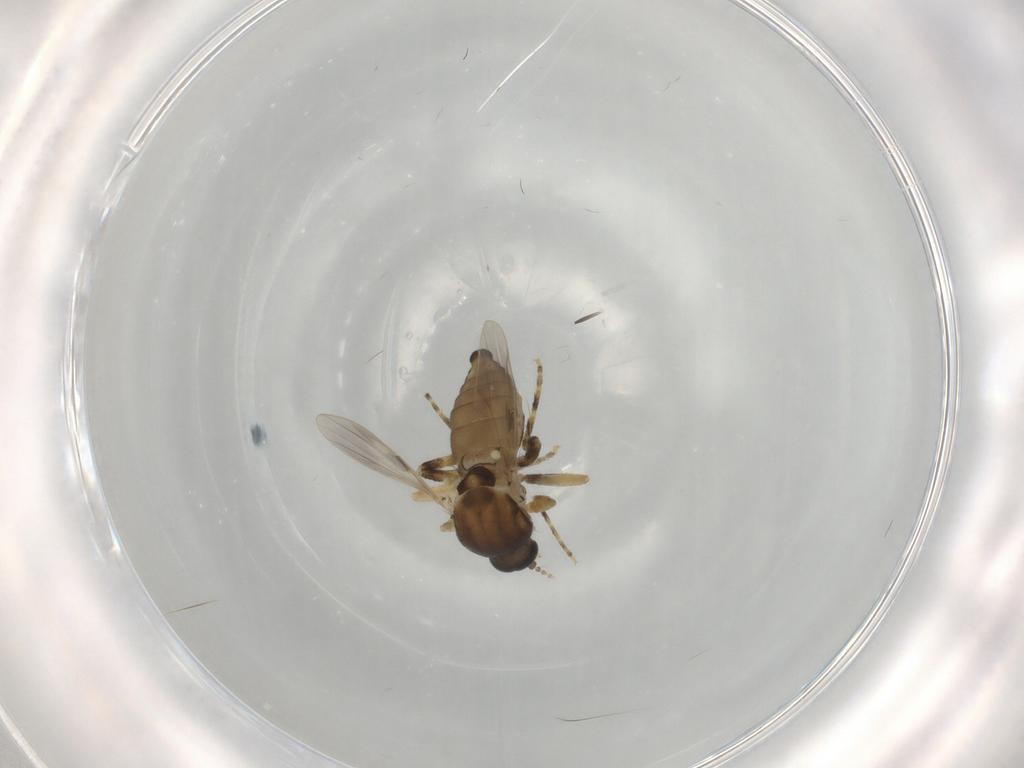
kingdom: Animalia
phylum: Arthropoda
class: Insecta
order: Diptera
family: Ceratopogonidae
